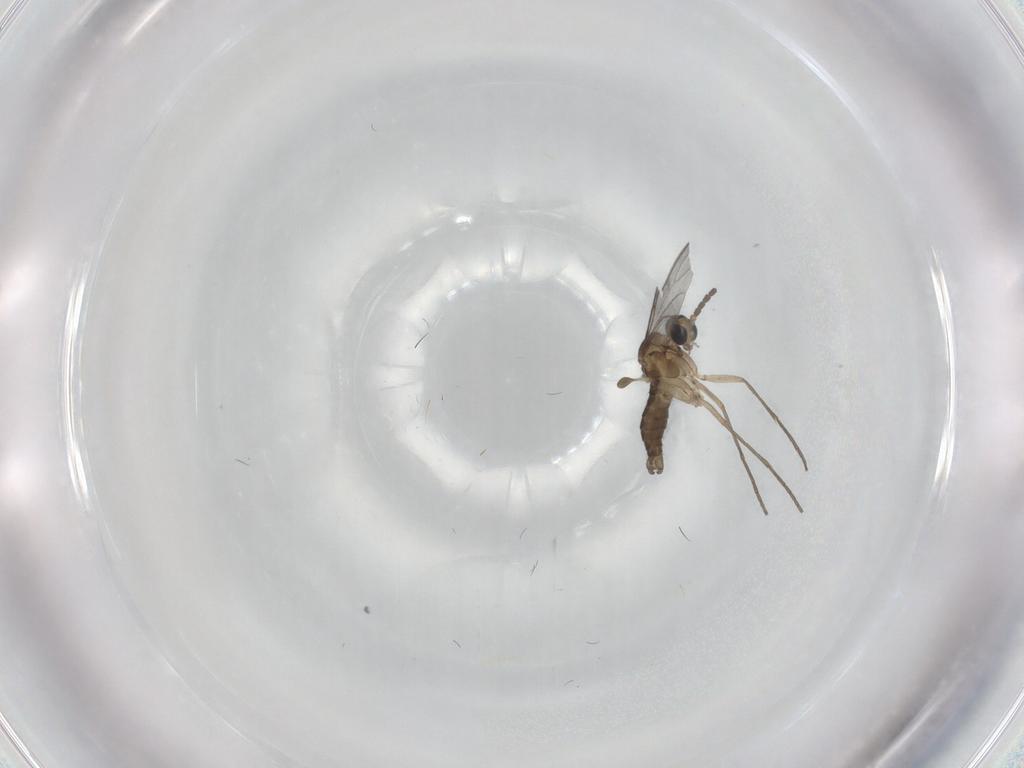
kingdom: Animalia
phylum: Arthropoda
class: Insecta
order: Diptera
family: Sciaridae
